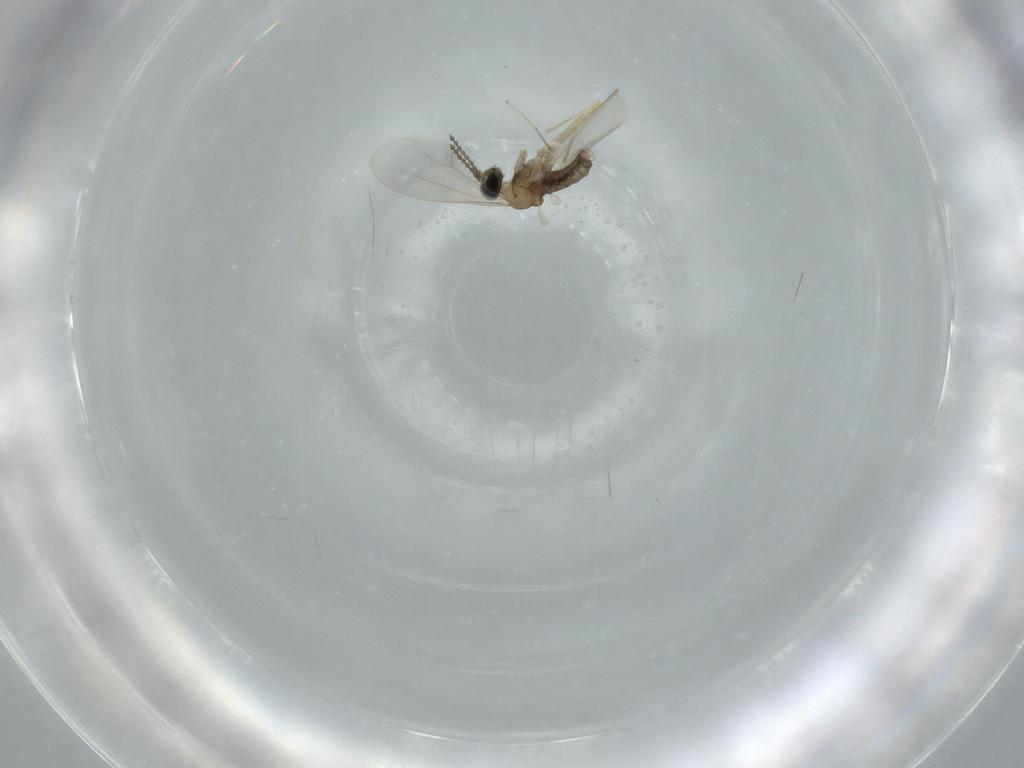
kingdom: Animalia
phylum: Arthropoda
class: Insecta
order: Diptera
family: Cecidomyiidae
